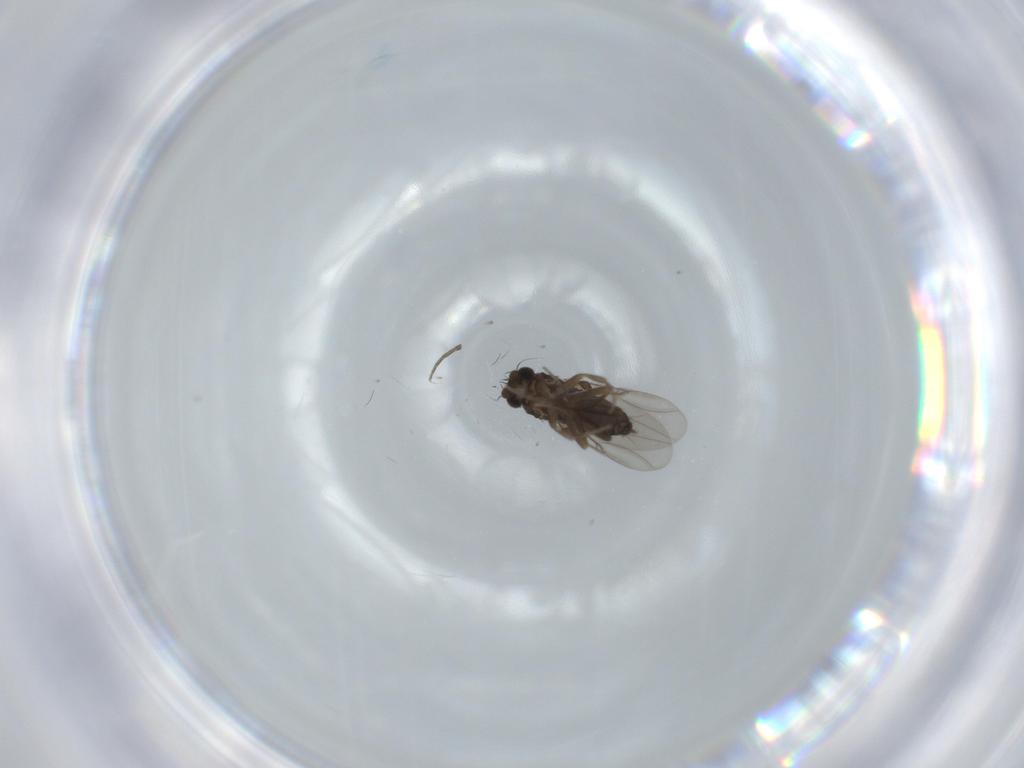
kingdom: Animalia
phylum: Arthropoda
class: Insecta
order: Diptera
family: Phoridae
